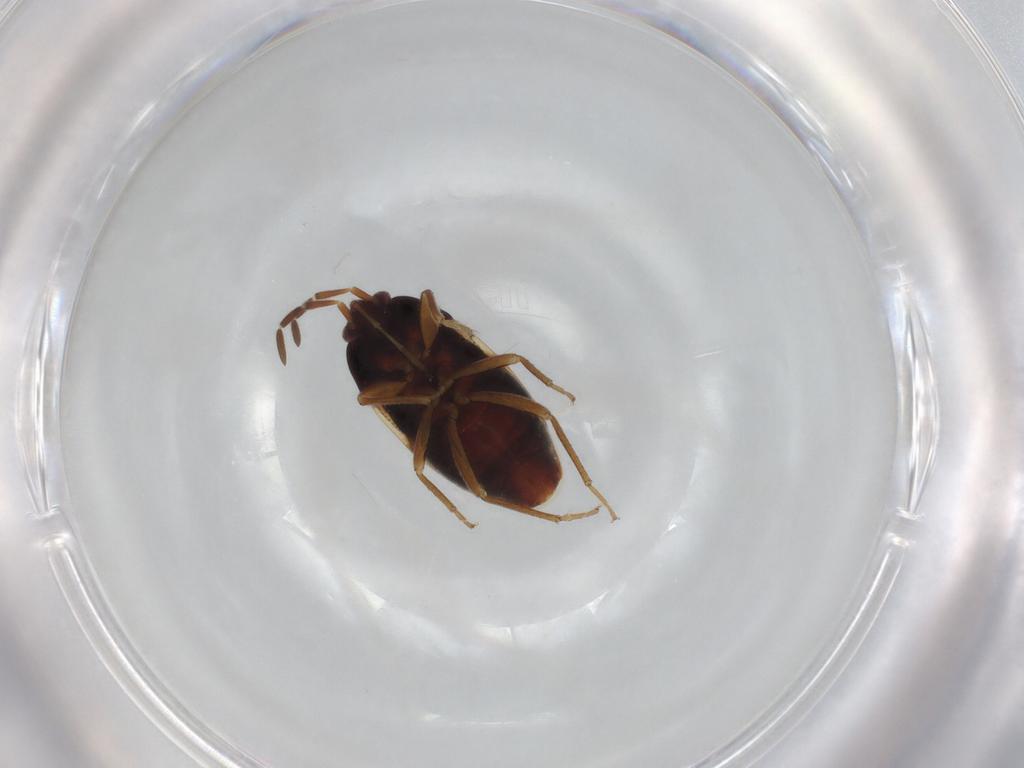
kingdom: Animalia
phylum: Arthropoda
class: Insecta
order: Hemiptera
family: Rhyparochromidae
